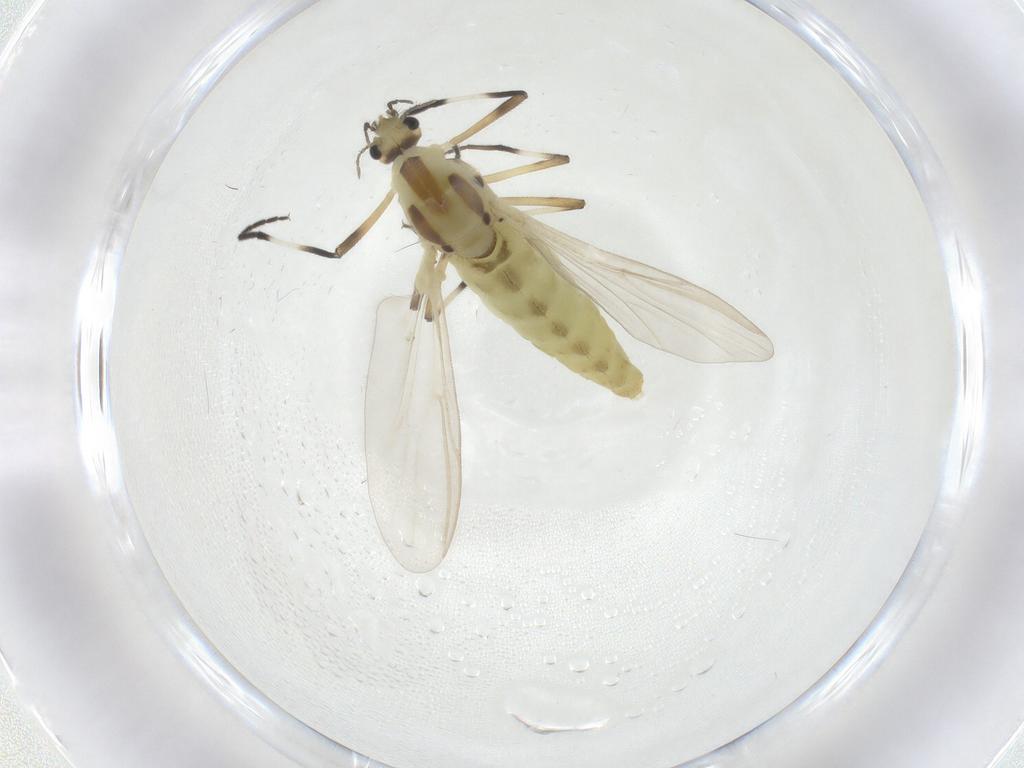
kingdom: Animalia
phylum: Arthropoda
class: Insecta
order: Diptera
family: Chironomidae
